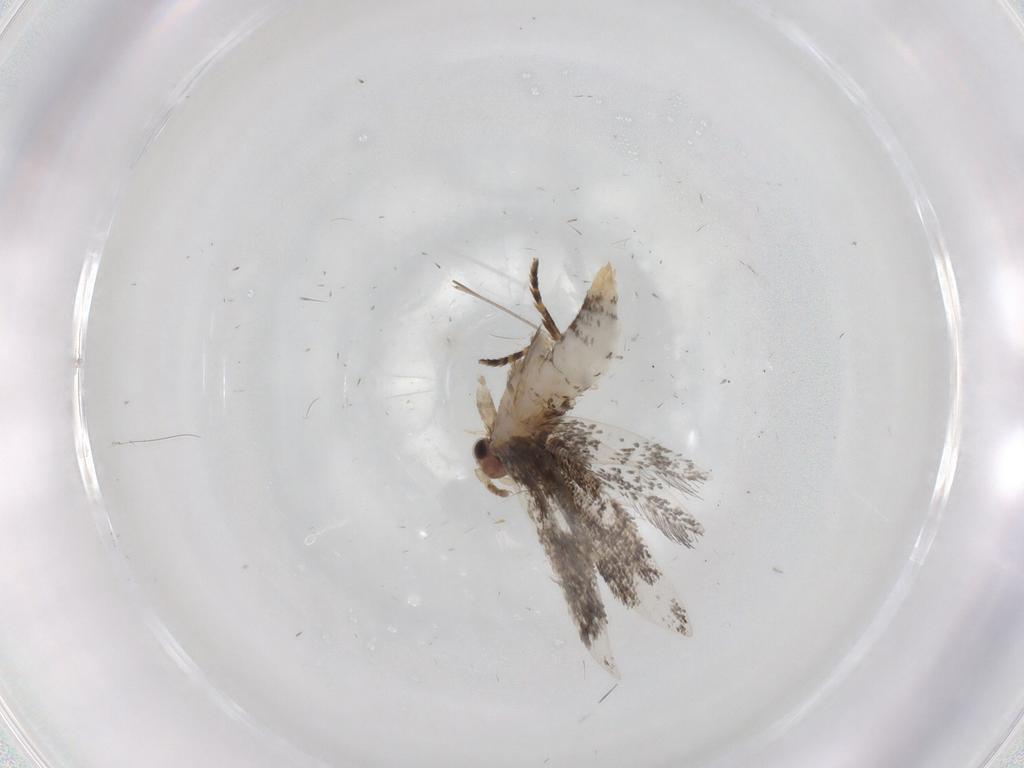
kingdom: Animalia
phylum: Arthropoda
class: Insecta
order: Lepidoptera
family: Tineidae
